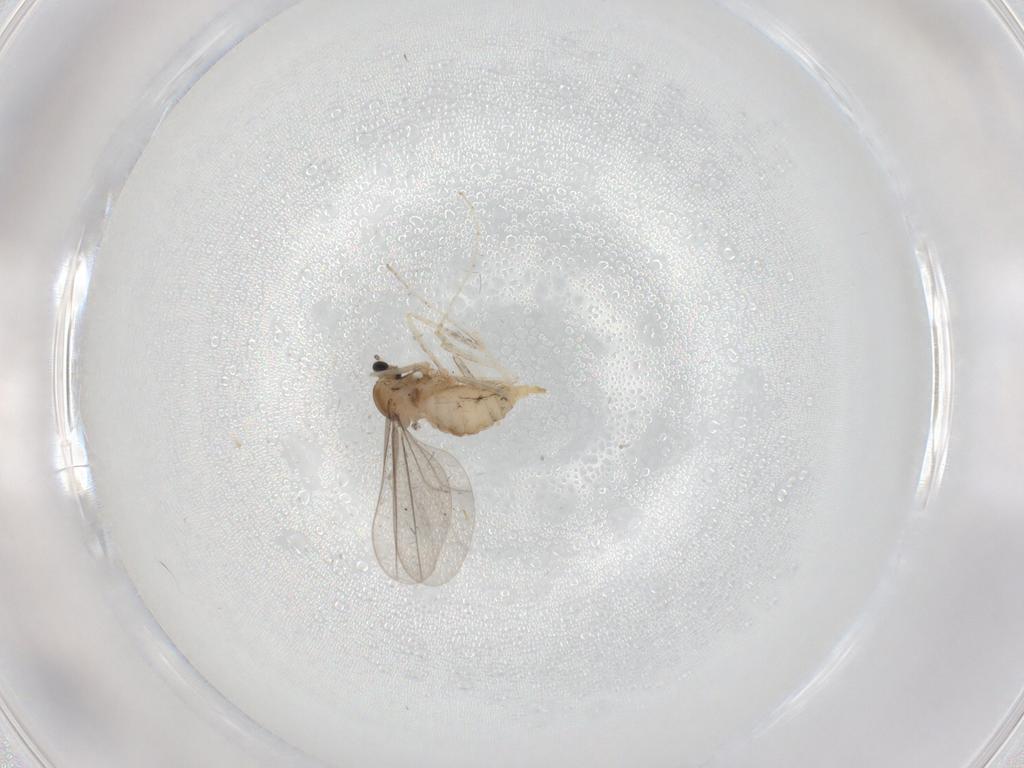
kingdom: Animalia
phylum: Arthropoda
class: Insecta
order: Diptera
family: Cecidomyiidae
